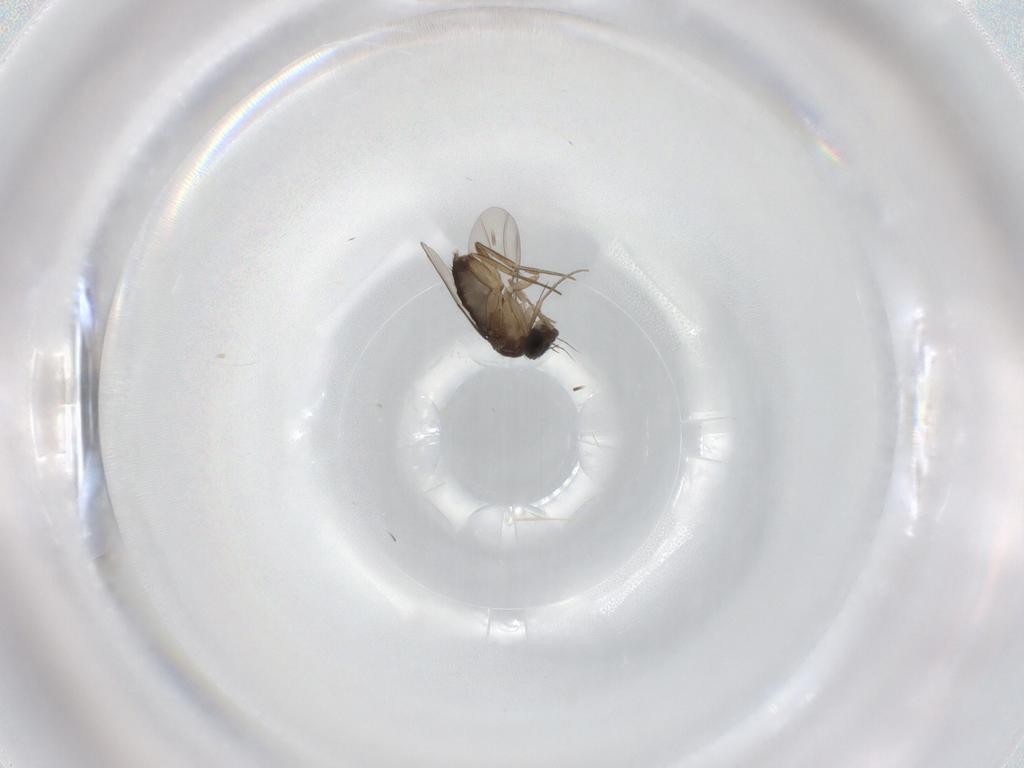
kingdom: Animalia
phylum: Arthropoda
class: Insecta
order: Diptera
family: Phoridae
